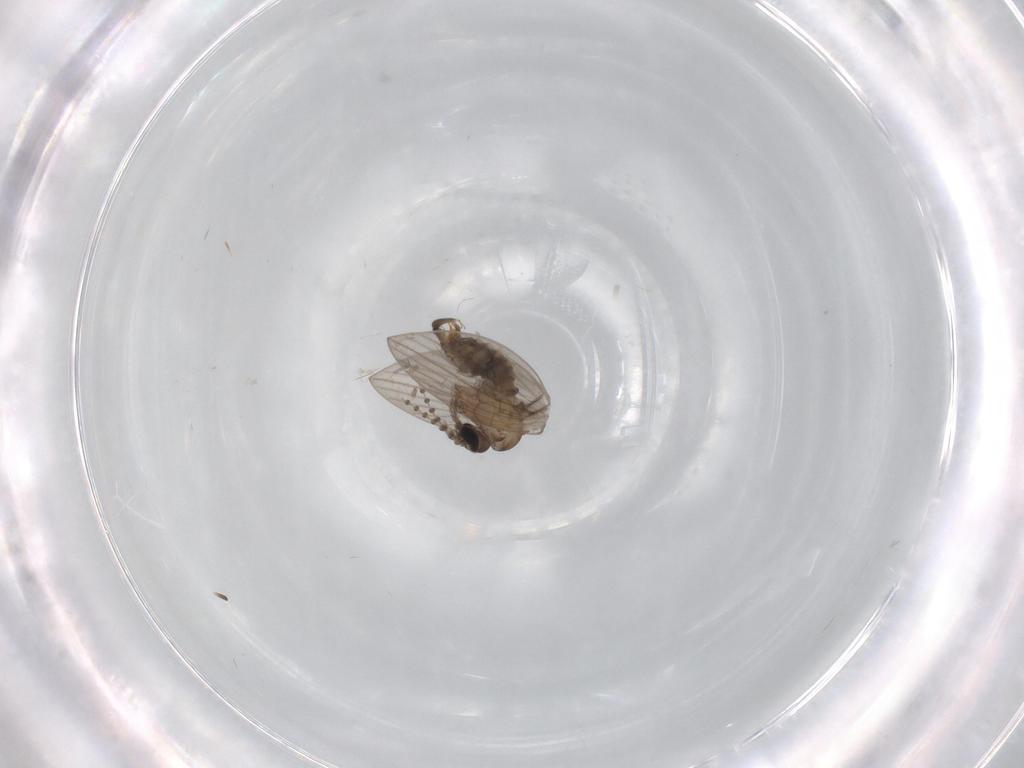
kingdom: Animalia
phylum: Arthropoda
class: Insecta
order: Diptera
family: Psychodidae
